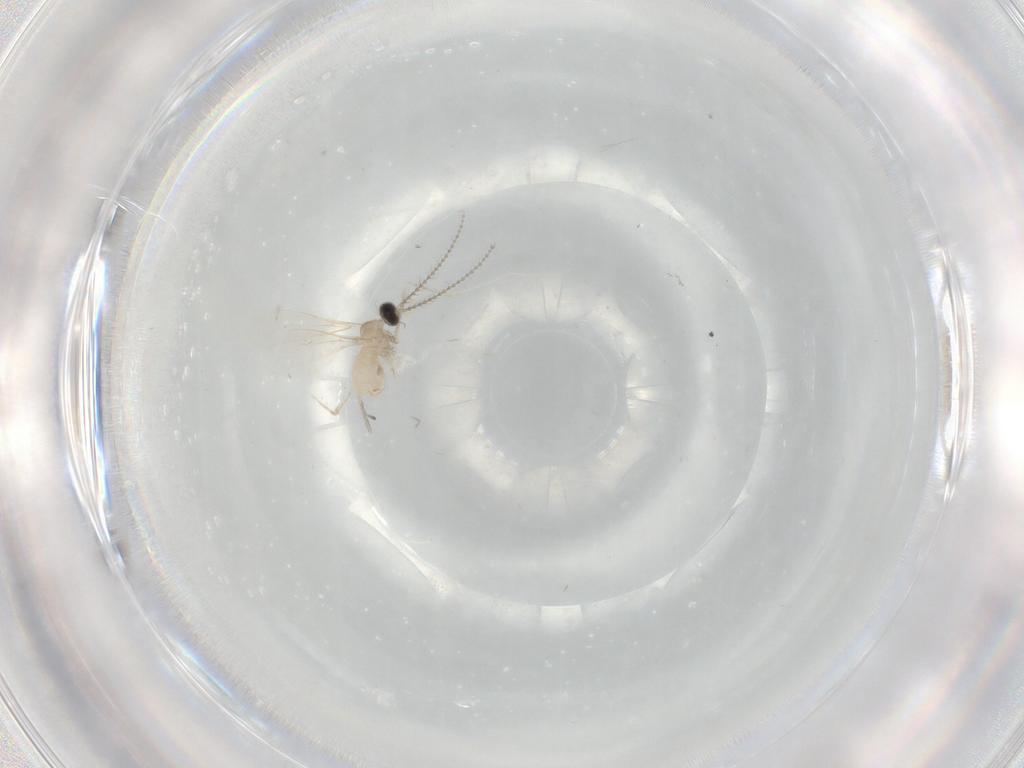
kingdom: Animalia
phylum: Arthropoda
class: Insecta
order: Diptera
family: Cecidomyiidae
